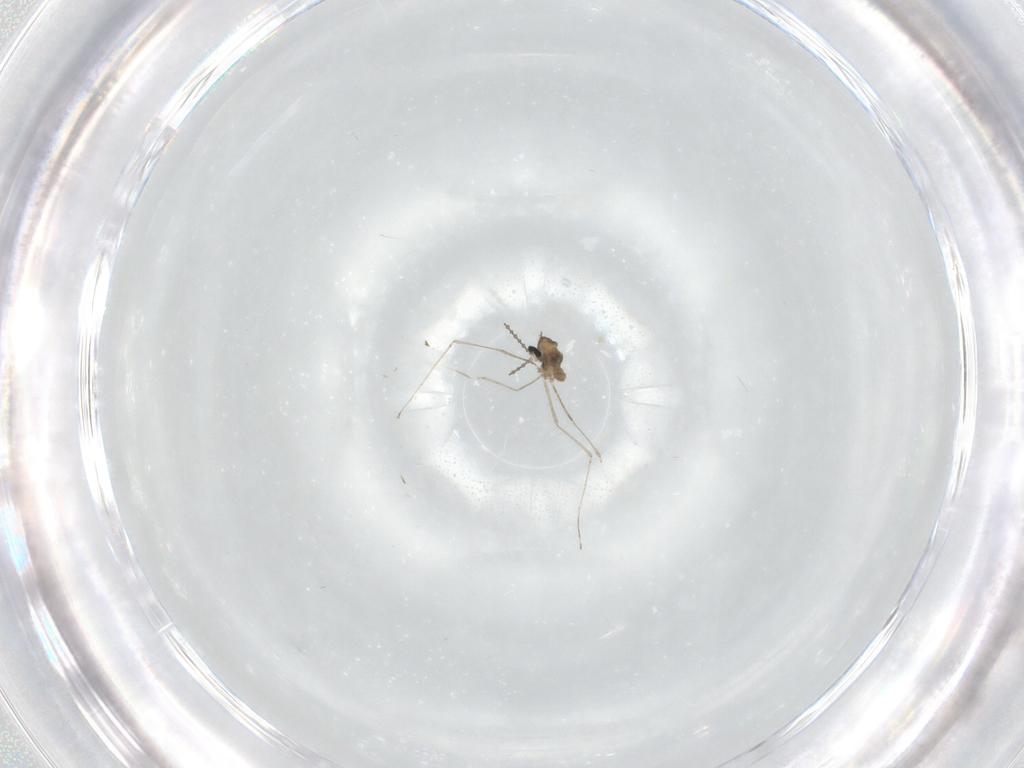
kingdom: Animalia
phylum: Arthropoda
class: Insecta
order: Diptera
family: Cecidomyiidae
